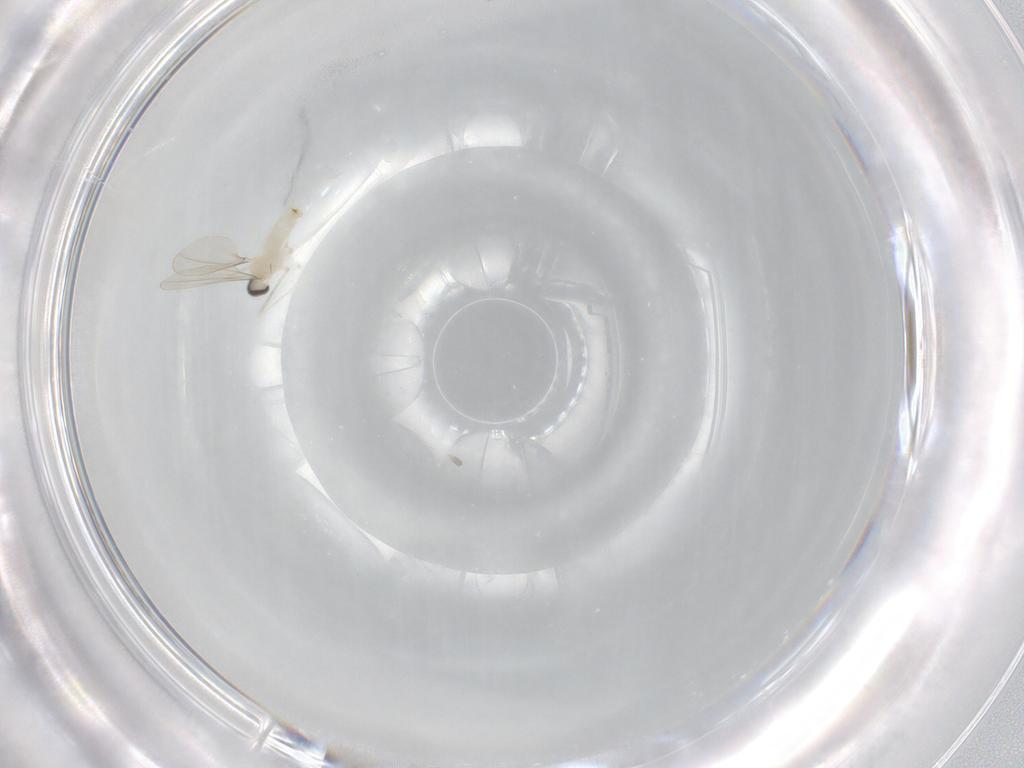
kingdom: Animalia
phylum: Arthropoda
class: Insecta
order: Diptera
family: Cecidomyiidae
